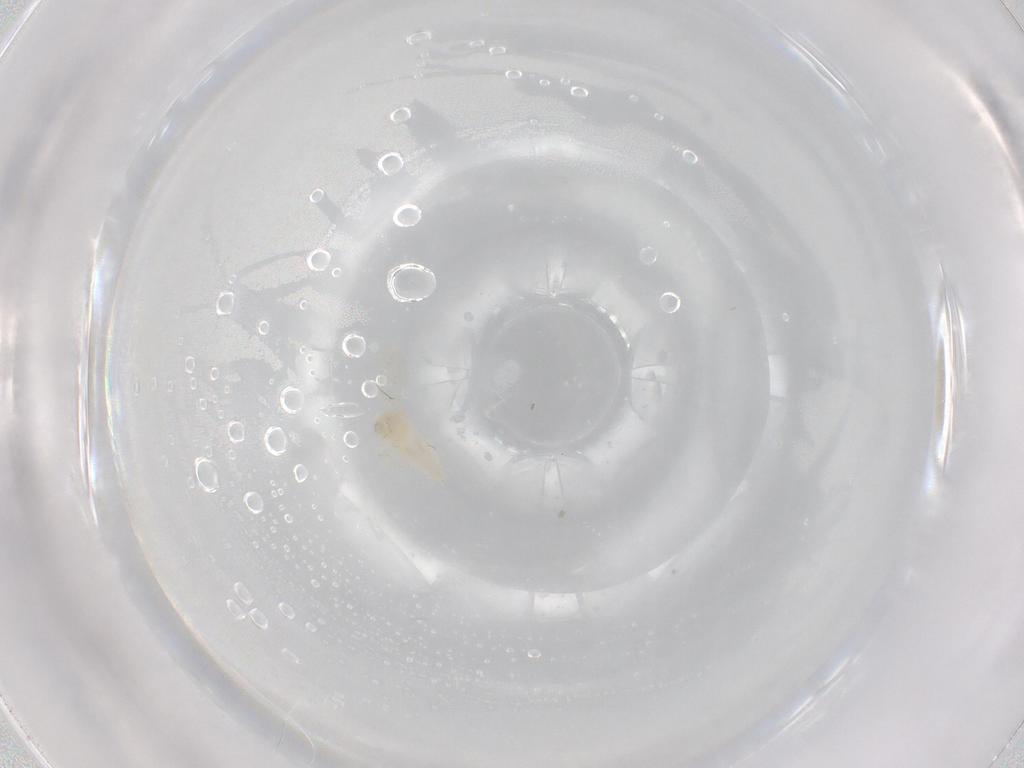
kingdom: Animalia
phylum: Arthropoda
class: Insecta
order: Hemiptera
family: Aleyrodidae
